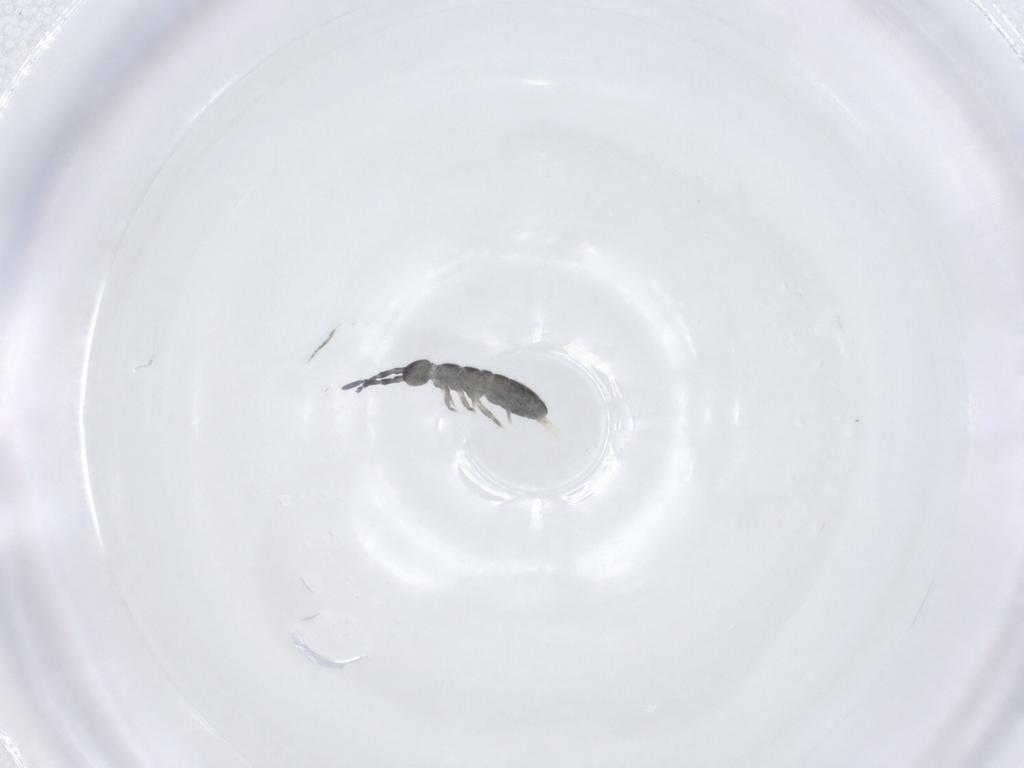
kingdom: Animalia
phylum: Arthropoda
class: Collembola
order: Entomobryomorpha
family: Isotomidae
